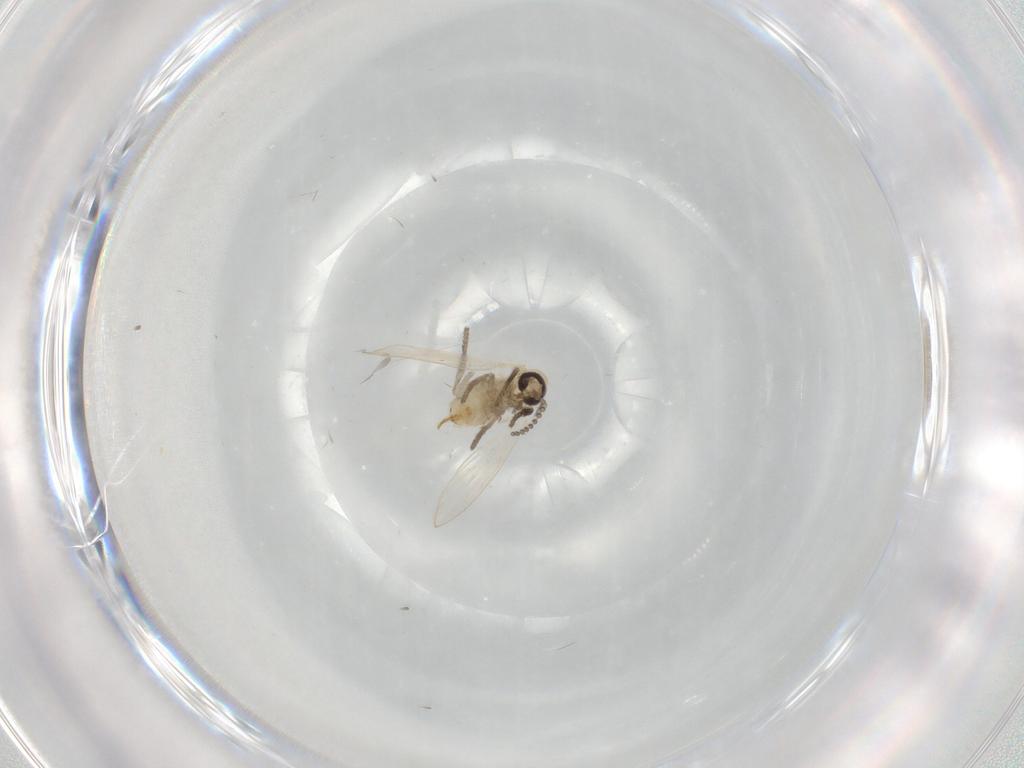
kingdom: Animalia
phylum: Arthropoda
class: Insecta
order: Diptera
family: Psychodidae
